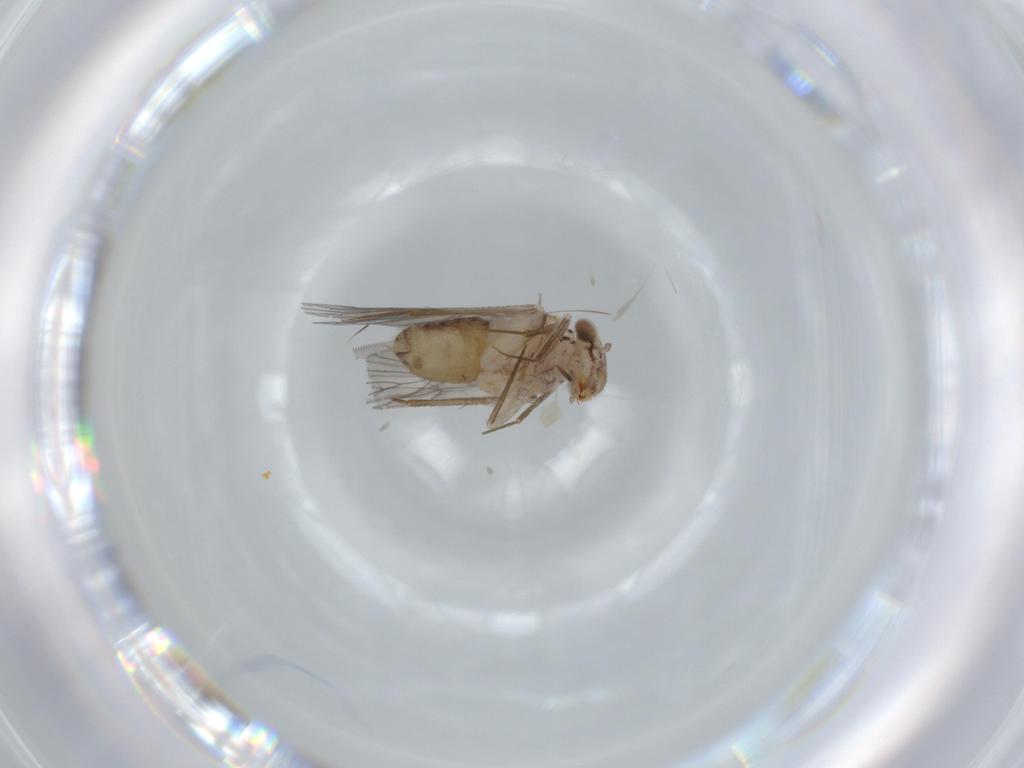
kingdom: Animalia
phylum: Arthropoda
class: Insecta
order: Psocodea
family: Lepidopsocidae
